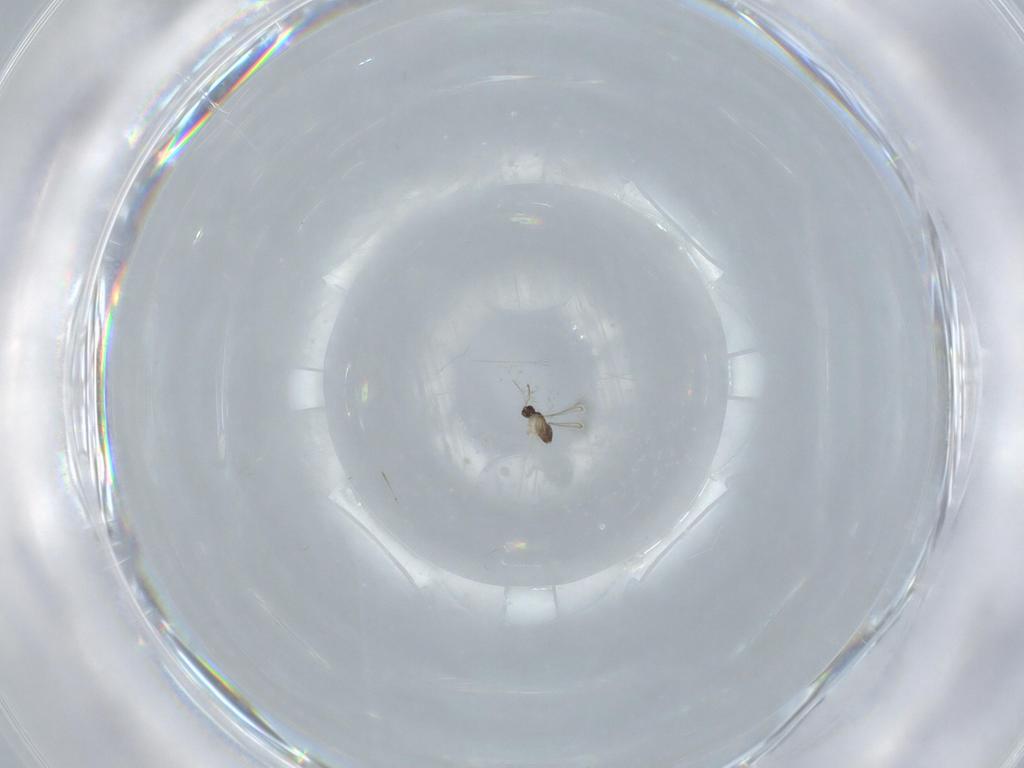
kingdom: Animalia
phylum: Arthropoda
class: Insecta
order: Hymenoptera
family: Mymaridae
